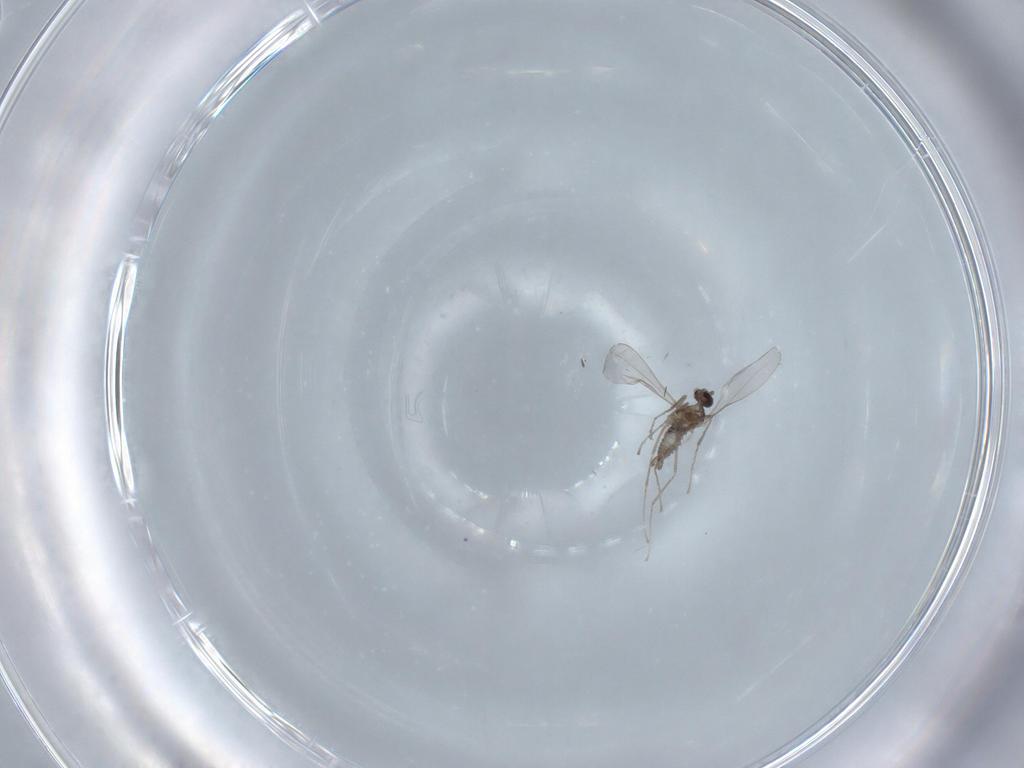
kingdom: Animalia
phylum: Arthropoda
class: Insecta
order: Diptera
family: Cecidomyiidae
